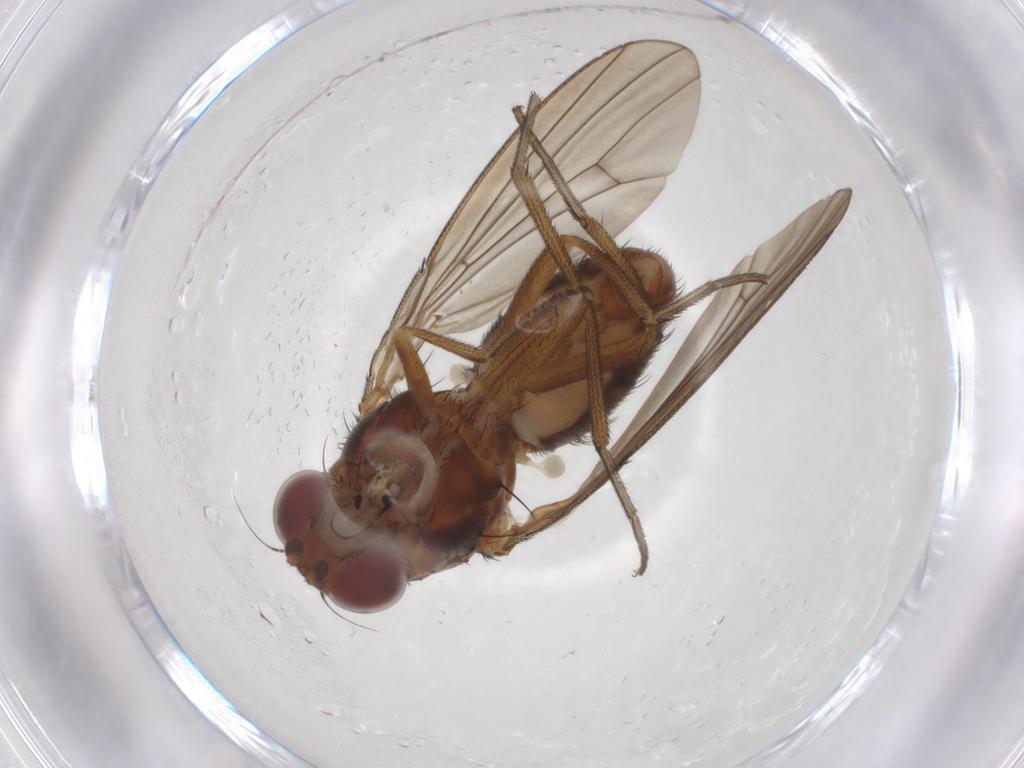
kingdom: Animalia
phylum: Arthropoda
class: Insecta
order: Diptera
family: Curtonotidae
